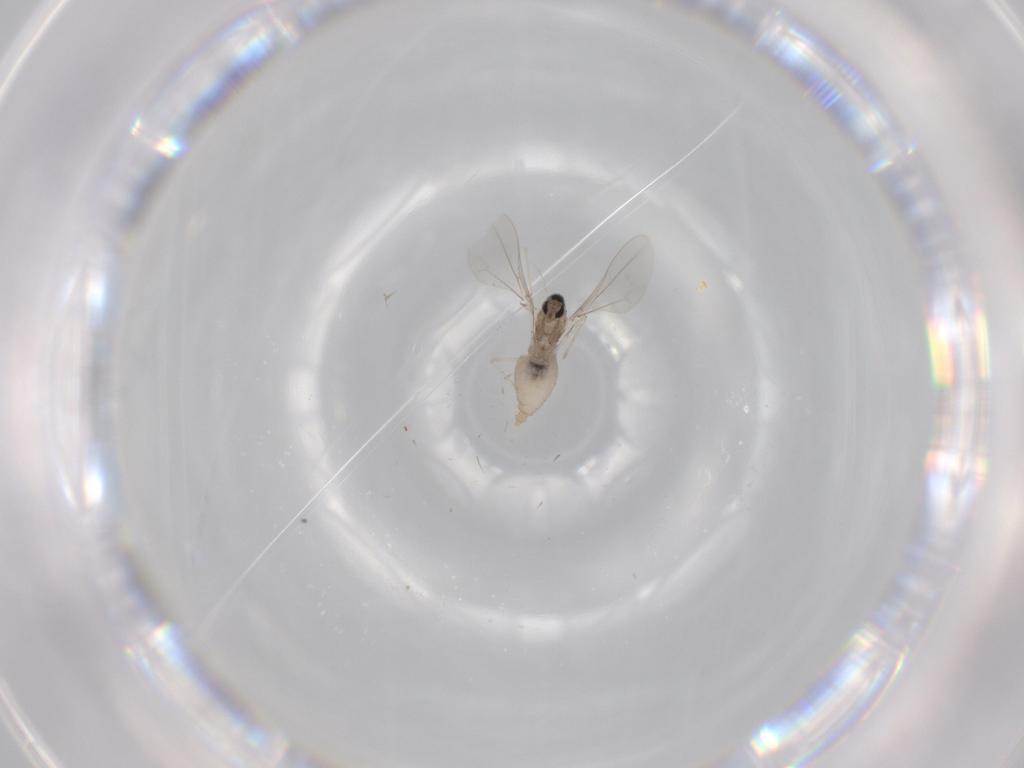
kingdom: Animalia
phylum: Arthropoda
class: Insecta
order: Diptera
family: Cecidomyiidae
